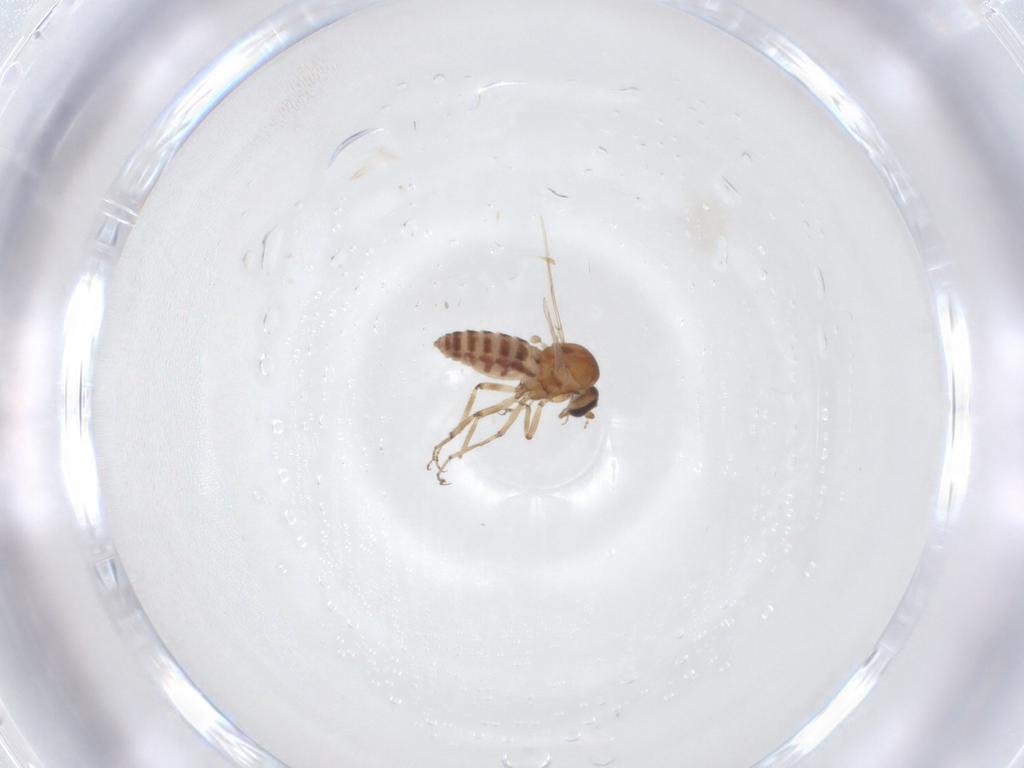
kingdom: Animalia
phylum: Arthropoda
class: Insecta
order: Diptera
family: Ceratopogonidae
